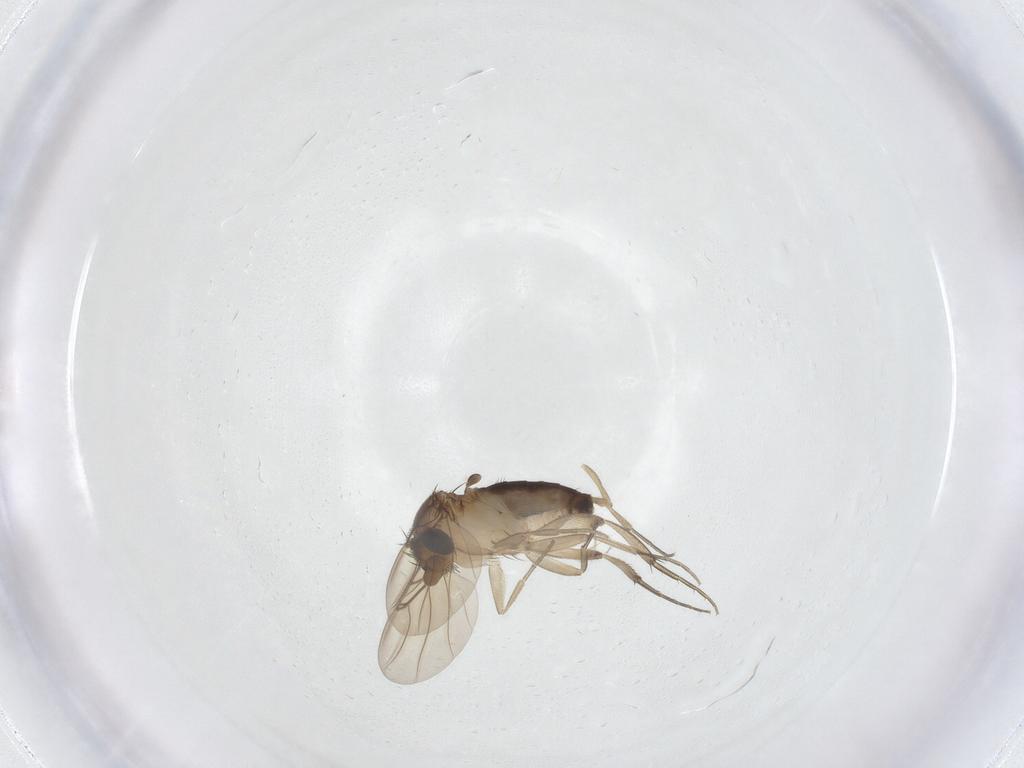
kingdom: Animalia
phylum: Arthropoda
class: Insecta
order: Diptera
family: Phoridae
